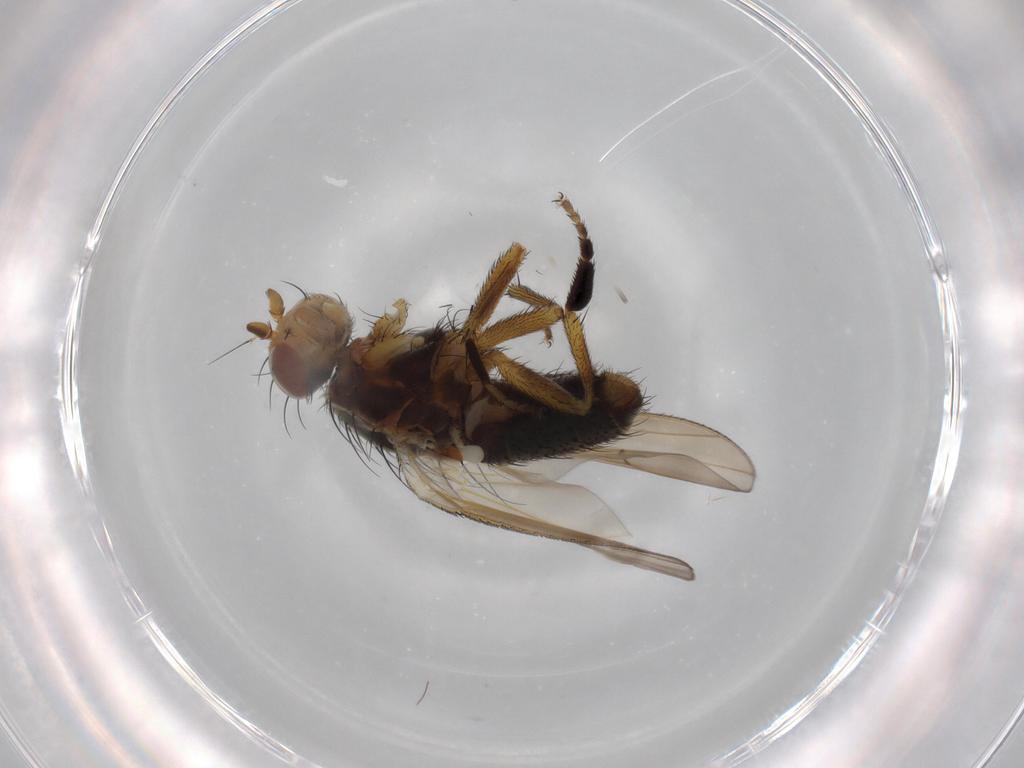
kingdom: Animalia
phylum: Arthropoda
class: Insecta
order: Diptera
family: Heleomyzidae
